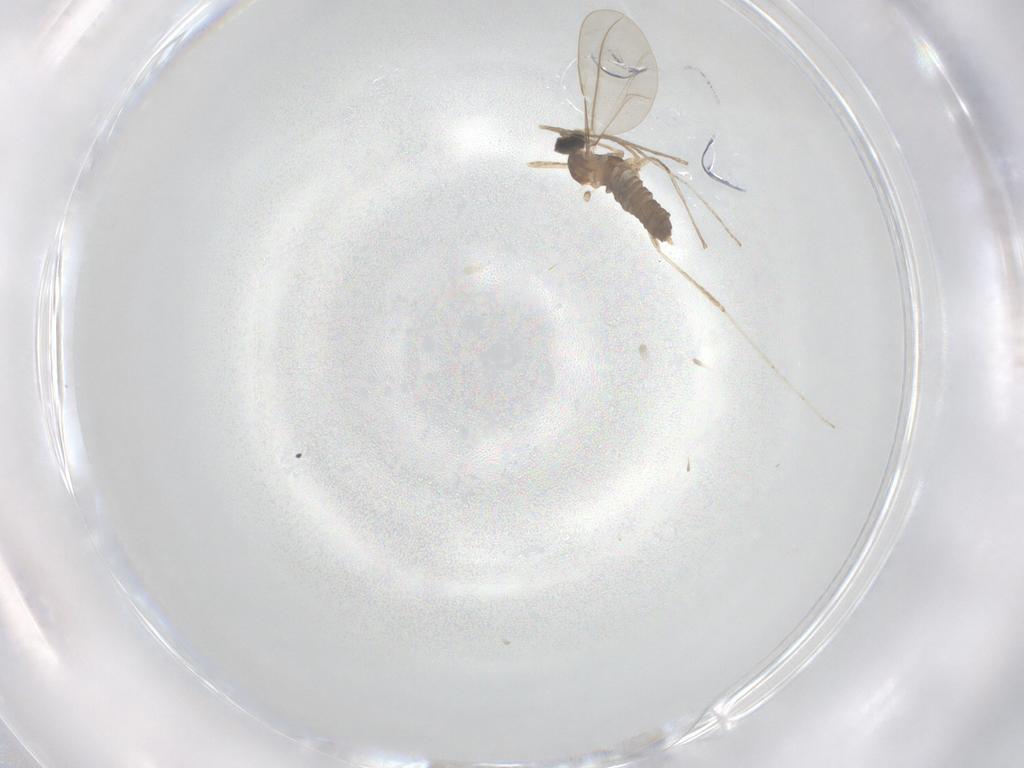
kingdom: Animalia
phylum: Arthropoda
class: Insecta
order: Diptera
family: Cecidomyiidae
